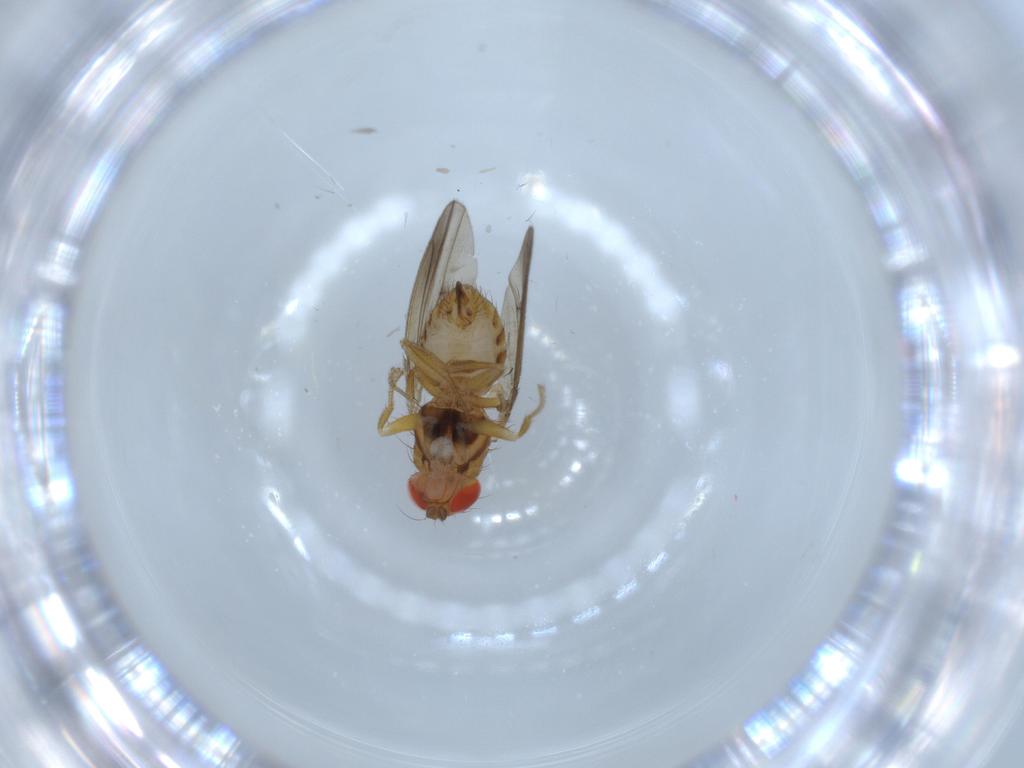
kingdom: Animalia
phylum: Arthropoda
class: Insecta
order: Diptera
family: Drosophilidae
